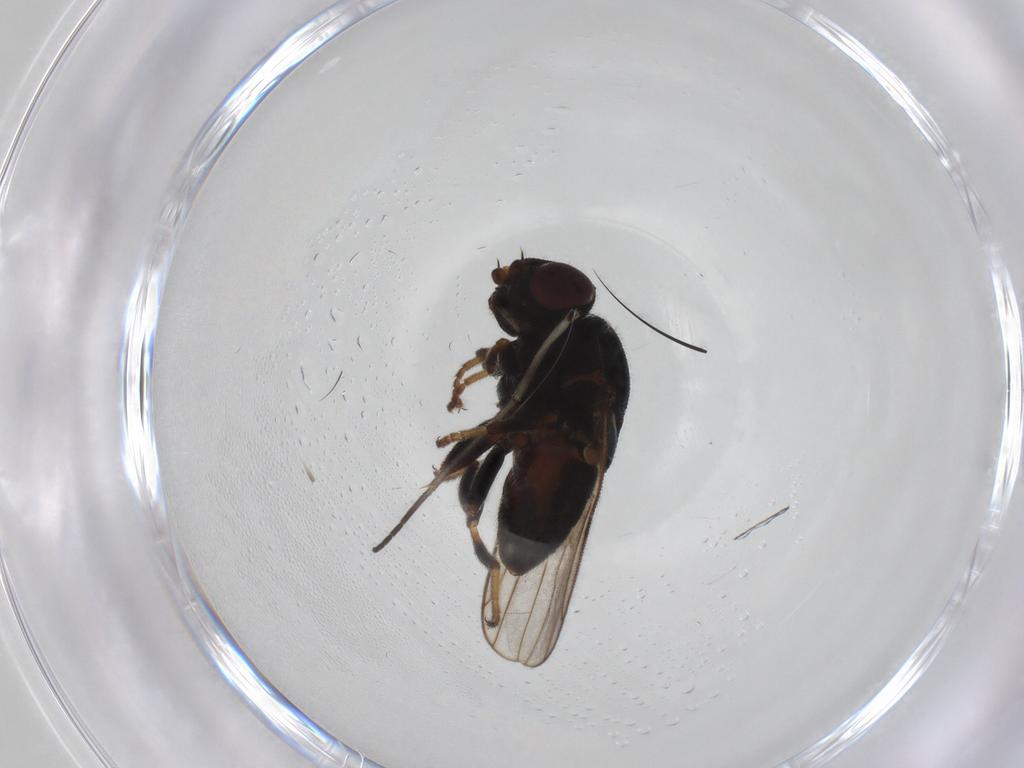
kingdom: Animalia
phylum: Arthropoda
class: Insecta
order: Diptera
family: Chloropidae
